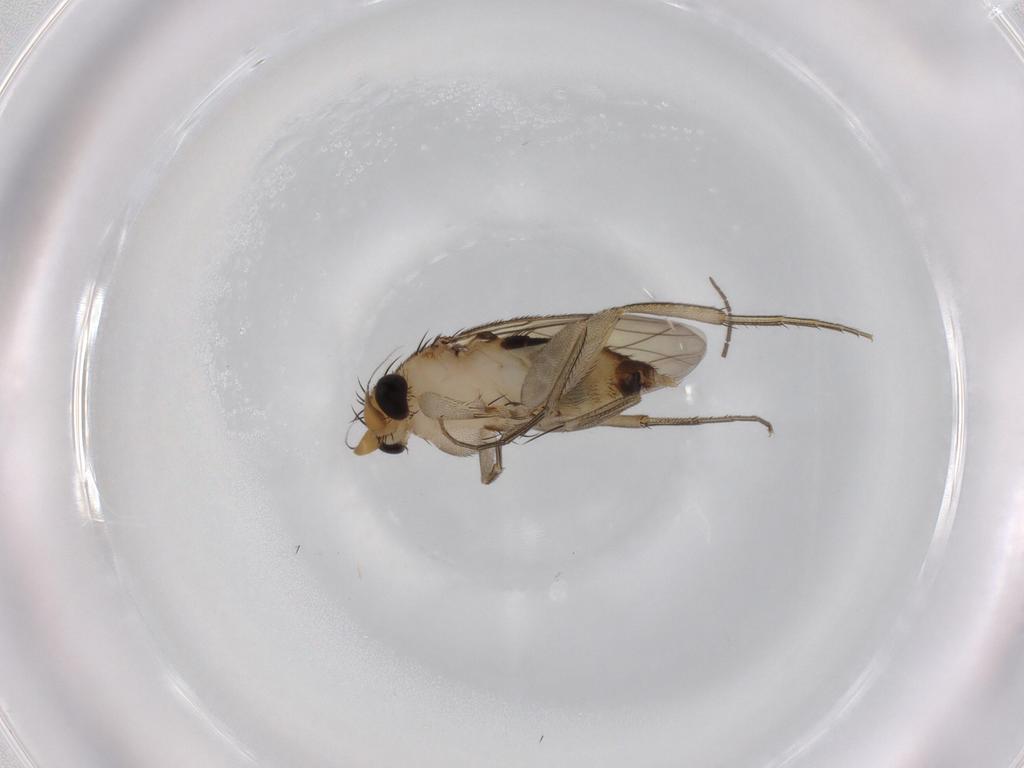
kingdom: Animalia
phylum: Arthropoda
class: Insecta
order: Diptera
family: Phoridae
